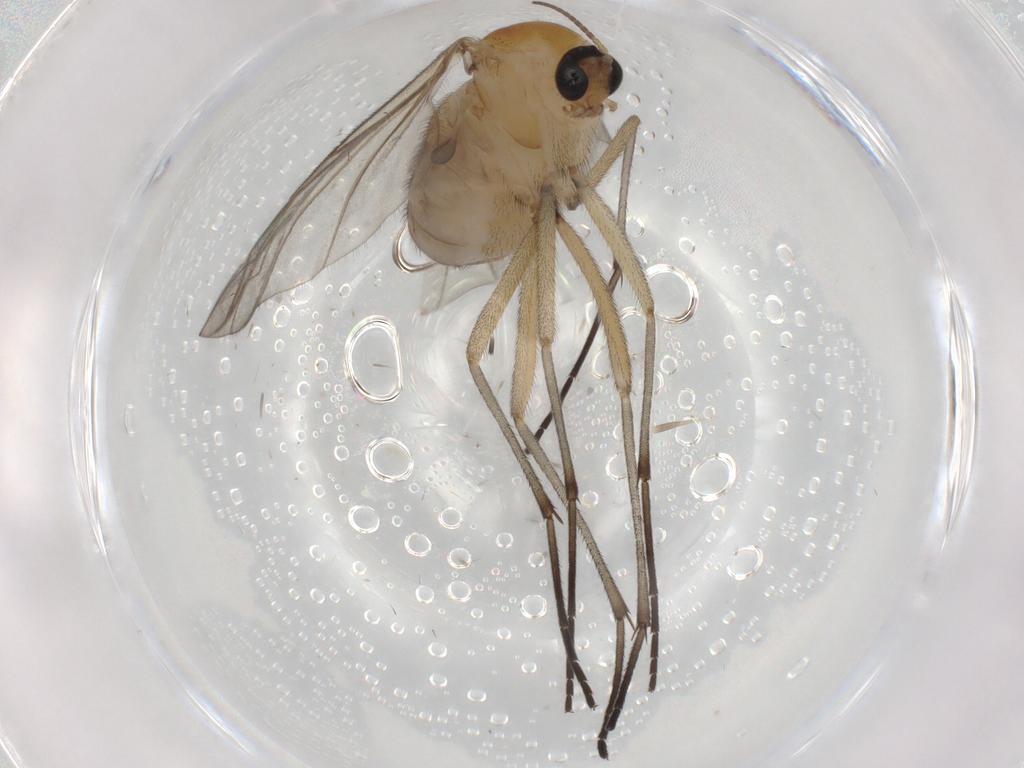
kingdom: Animalia
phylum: Arthropoda
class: Insecta
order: Diptera
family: Sciaridae
